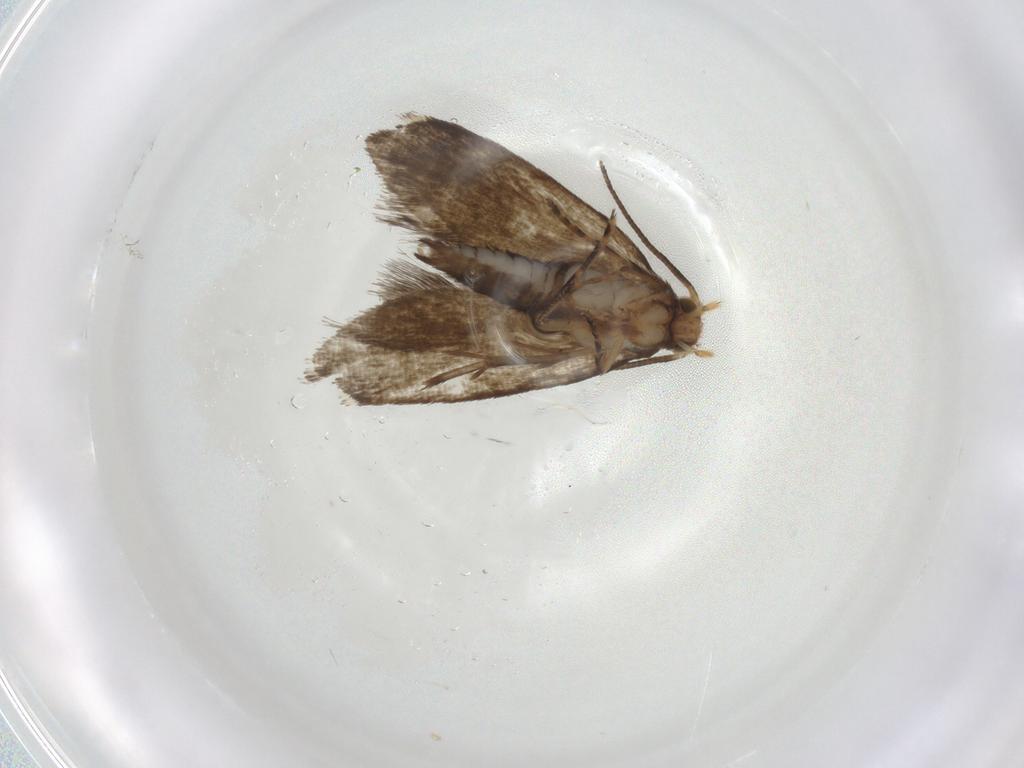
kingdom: Animalia
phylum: Arthropoda
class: Insecta
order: Lepidoptera
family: Tineidae
